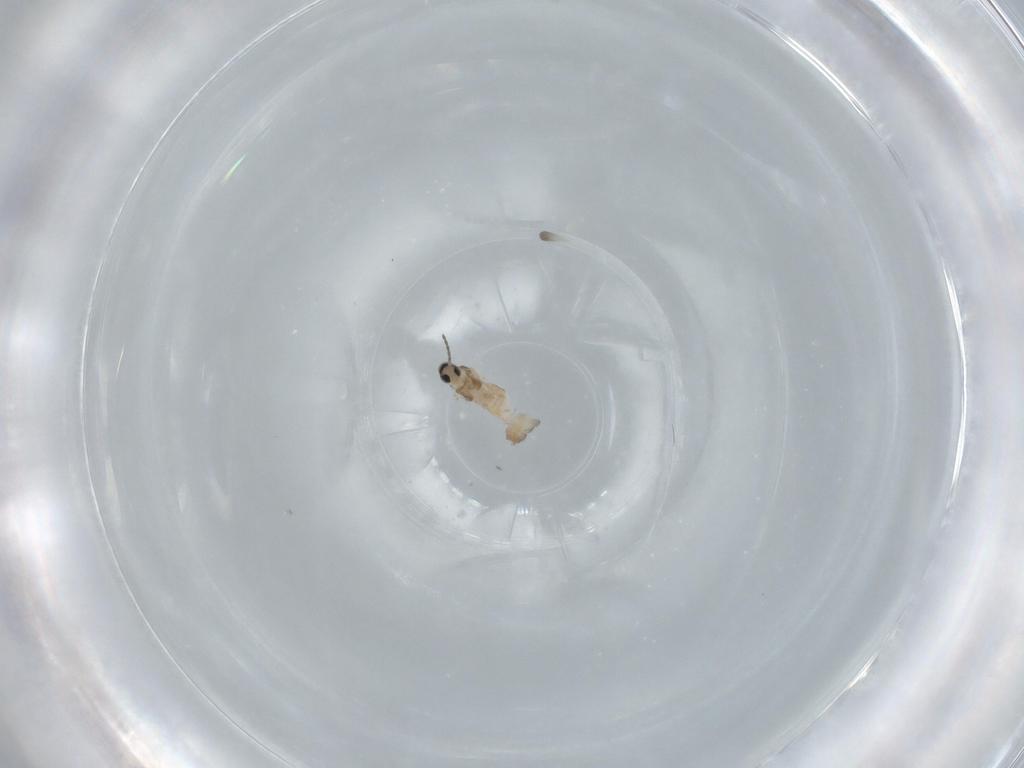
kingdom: Animalia
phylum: Arthropoda
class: Insecta
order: Diptera
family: Cecidomyiidae
